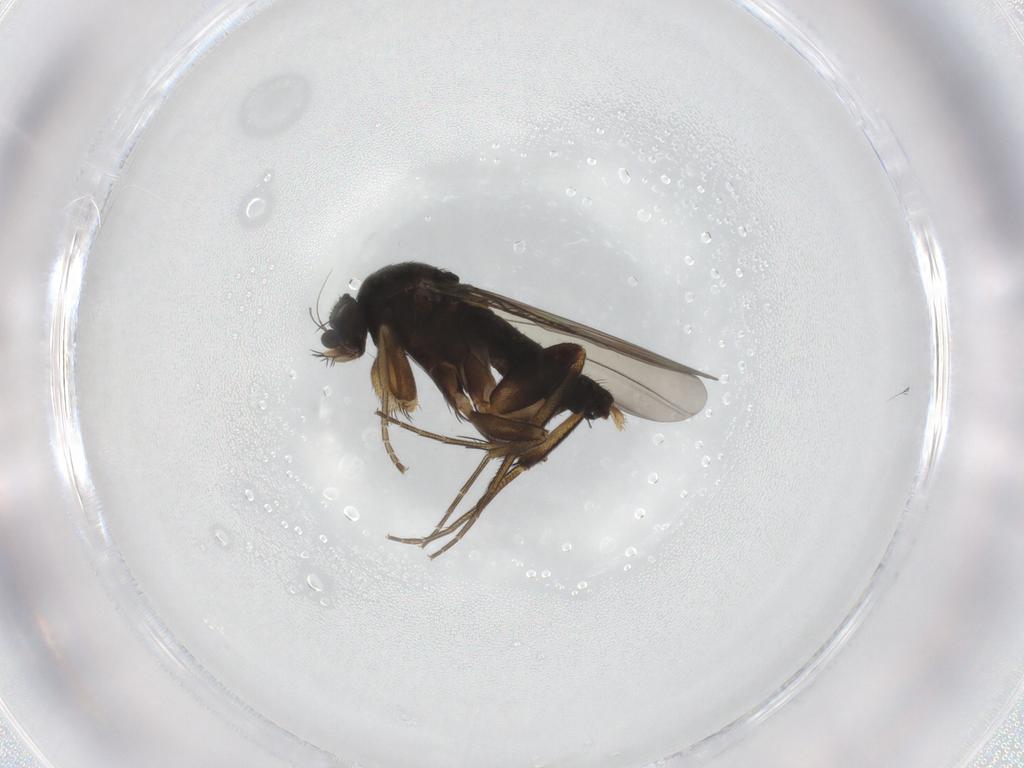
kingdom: Animalia
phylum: Arthropoda
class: Insecta
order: Diptera
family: Phoridae
